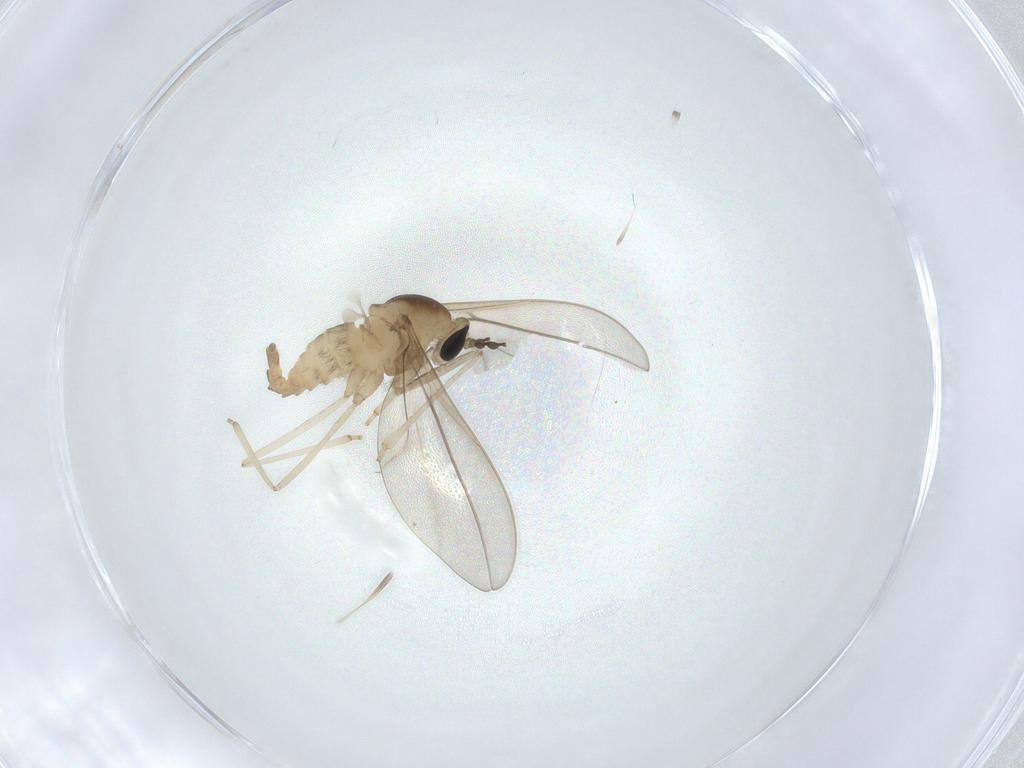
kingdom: Animalia
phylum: Arthropoda
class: Insecta
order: Diptera
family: Cecidomyiidae
